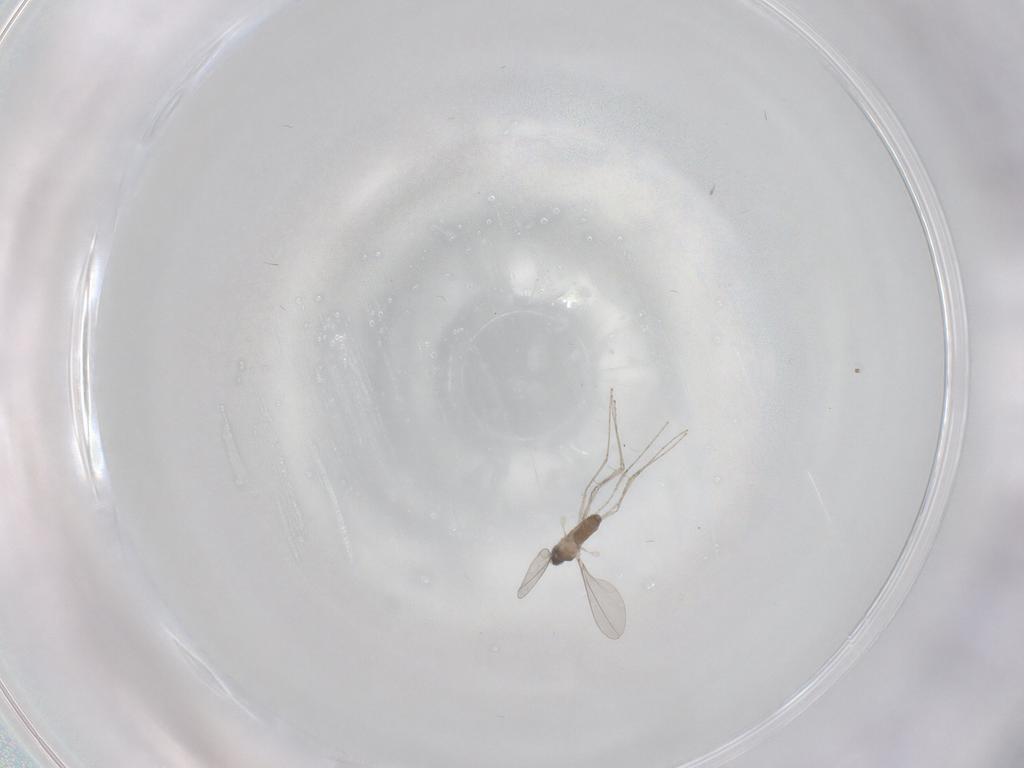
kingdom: Animalia
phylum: Arthropoda
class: Insecta
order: Diptera
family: Cecidomyiidae
